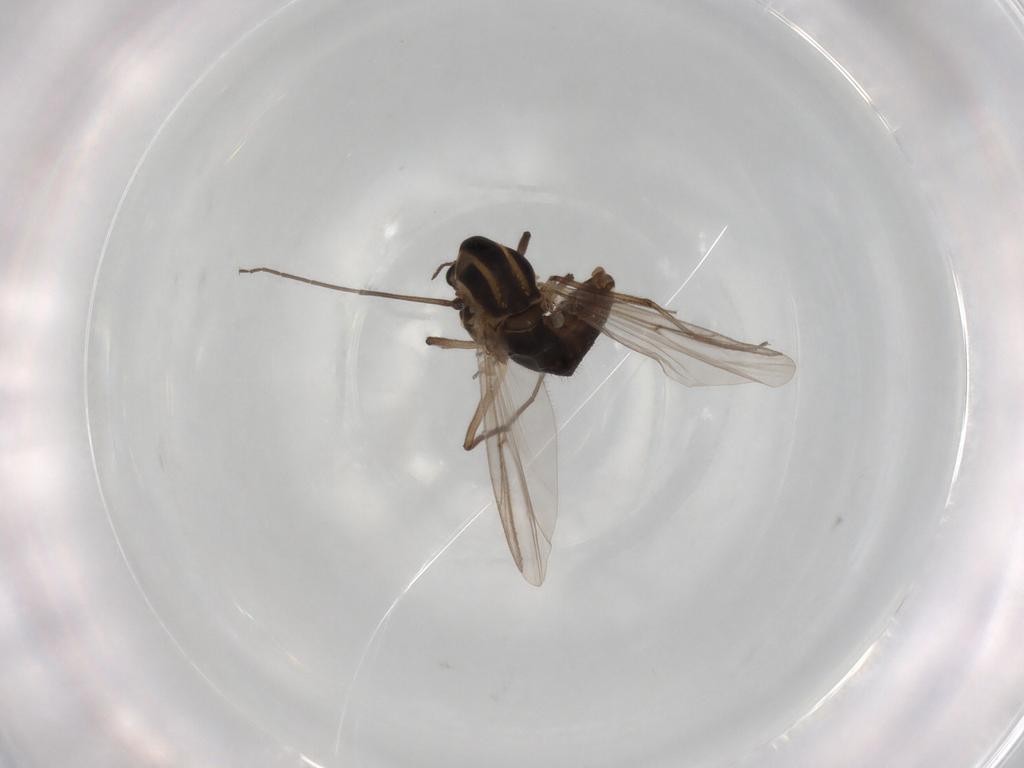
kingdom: Animalia
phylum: Arthropoda
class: Insecta
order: Diptera
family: Chironomidae
